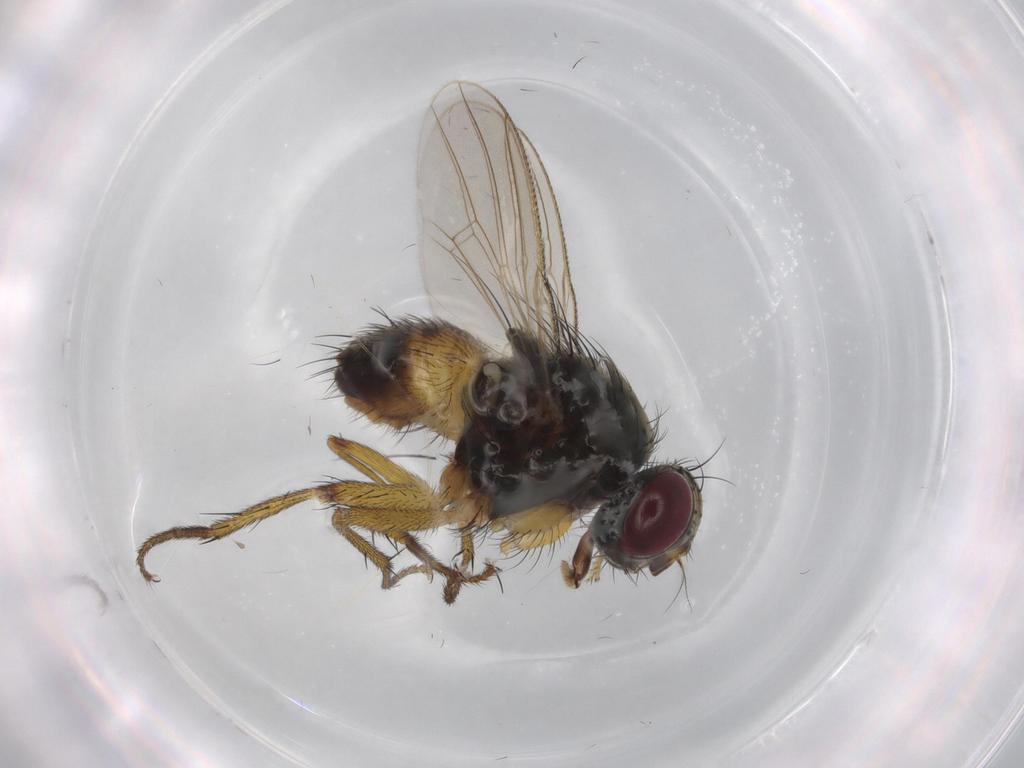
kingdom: Animalia
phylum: Arthropoda
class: Insecta
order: Diptera
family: Muscidae
